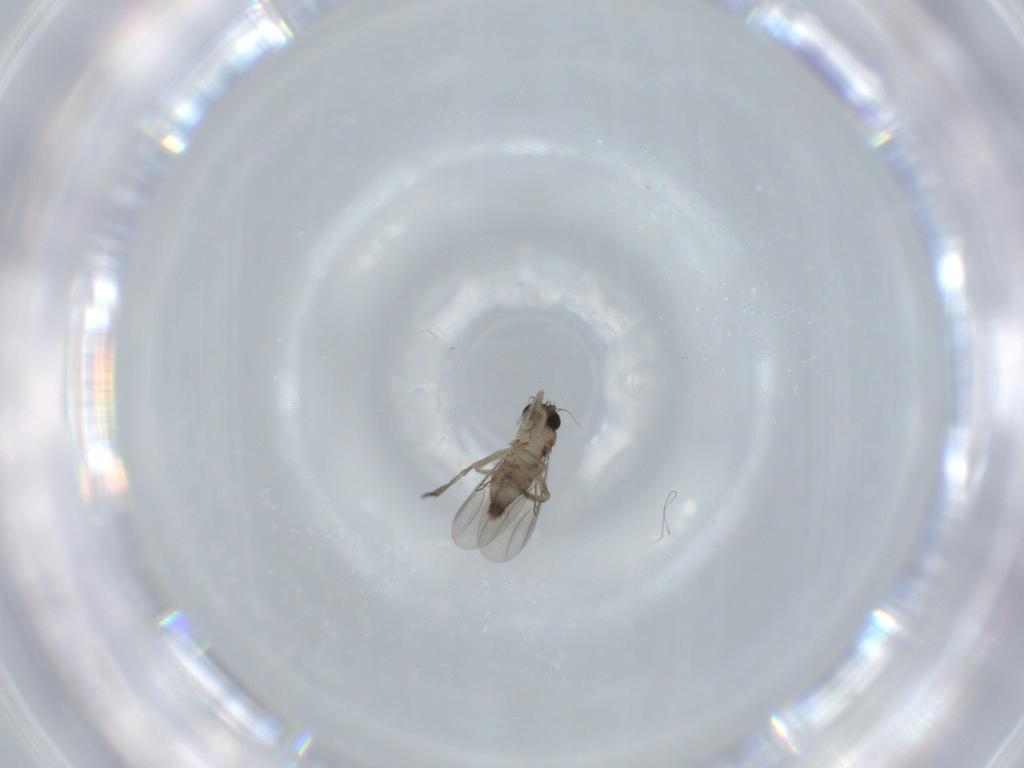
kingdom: Animalia
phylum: Arthropoda
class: Insecta
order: Diptera
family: Phoridae
